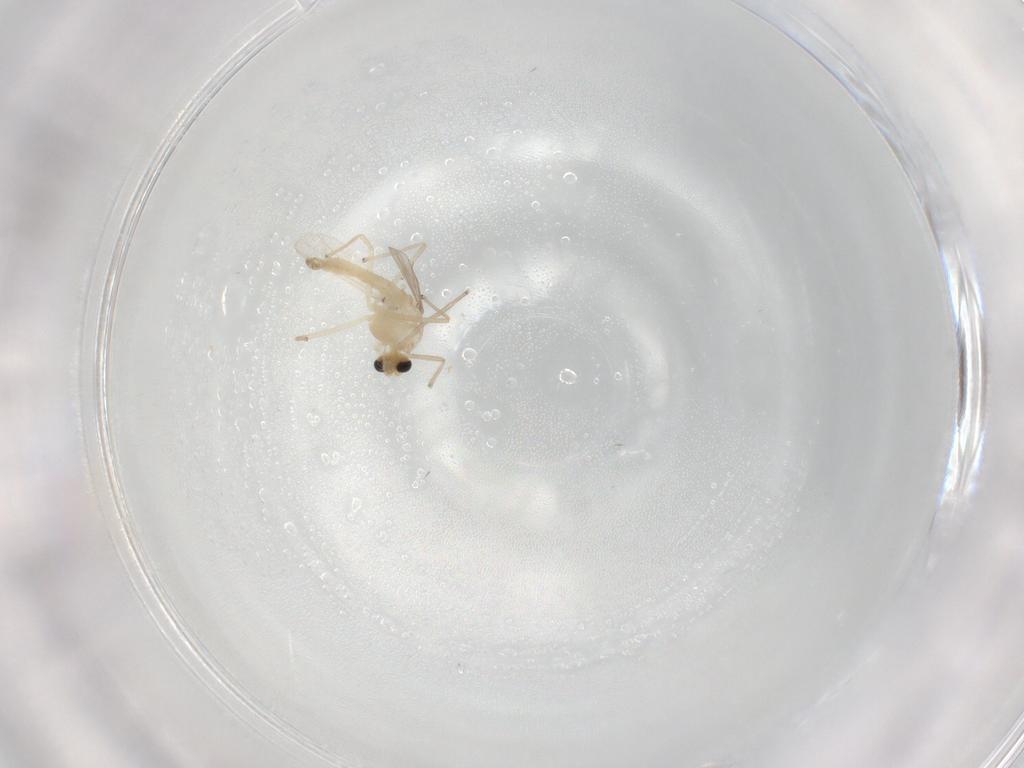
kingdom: Animalia
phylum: Arthropoda
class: Insecta
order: Diptera
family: Chironomidae
